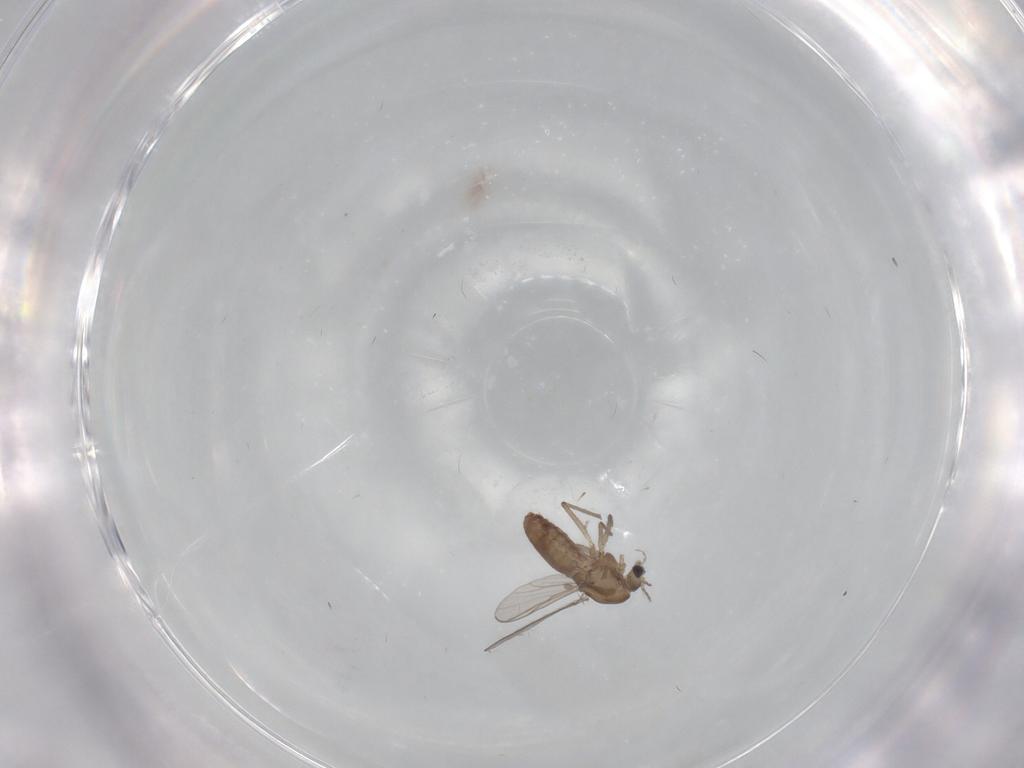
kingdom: Animalia
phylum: Arthropoda
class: Insecta
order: Diptera
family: Chironomidae
